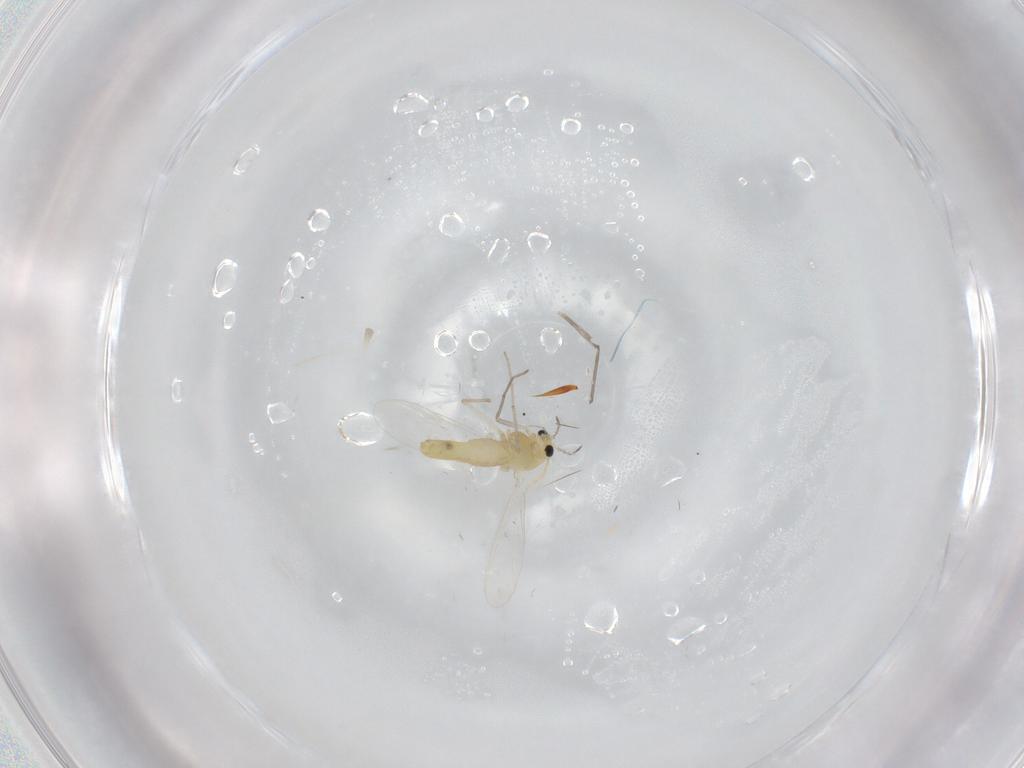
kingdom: Animalia
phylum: Arthropoda
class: Insecta
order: Diptera
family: Chironomidae
